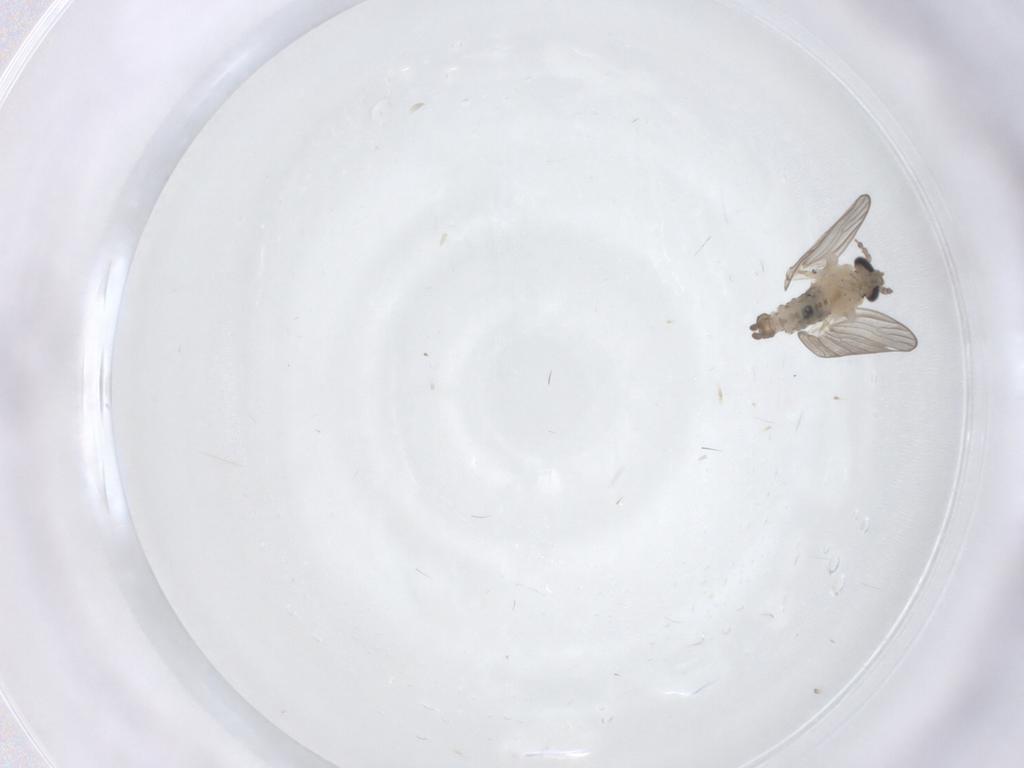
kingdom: Animalia
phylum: Arthropoda
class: Insecta
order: Diptera
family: Psychodidae
